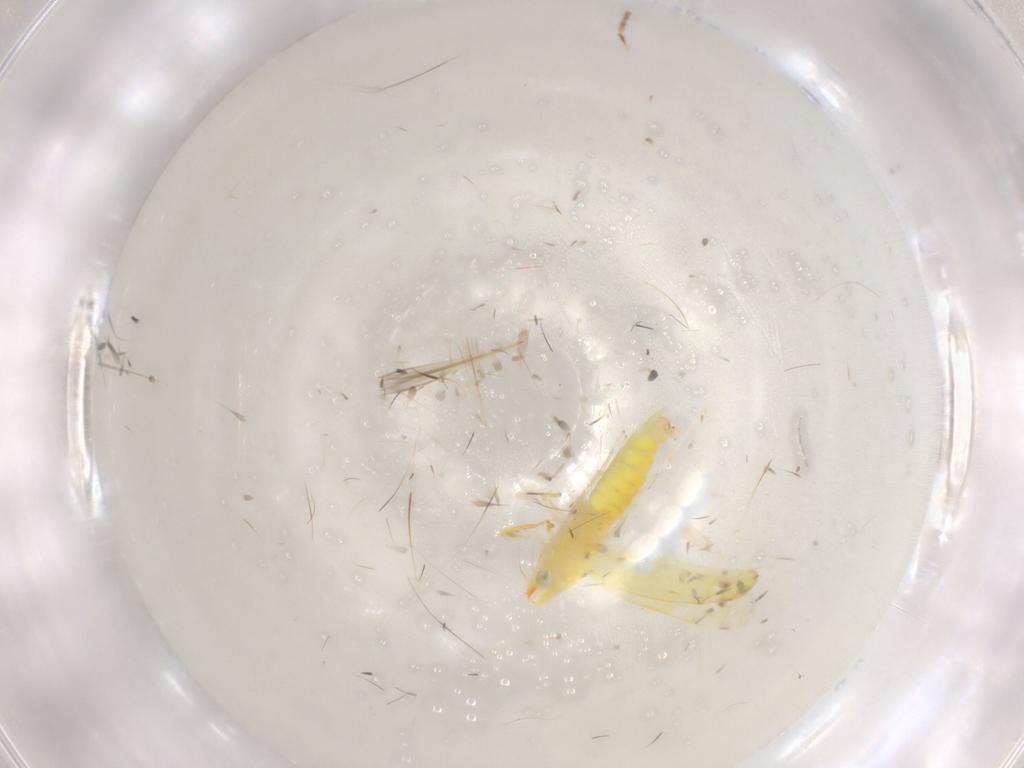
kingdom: Animalia
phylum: Arthropoda
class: Insecta
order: Hemiptera
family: Cicadellidae
